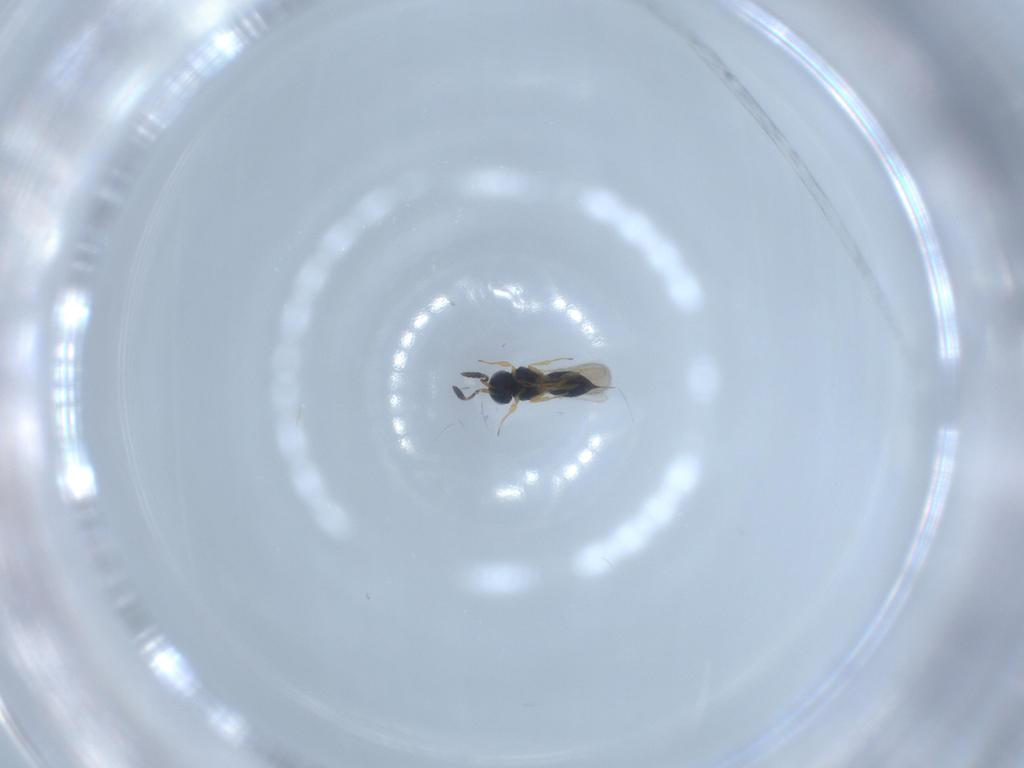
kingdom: Animalia
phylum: Arthropoda
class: Insecta
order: Hymenoptera
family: Scelionidae
